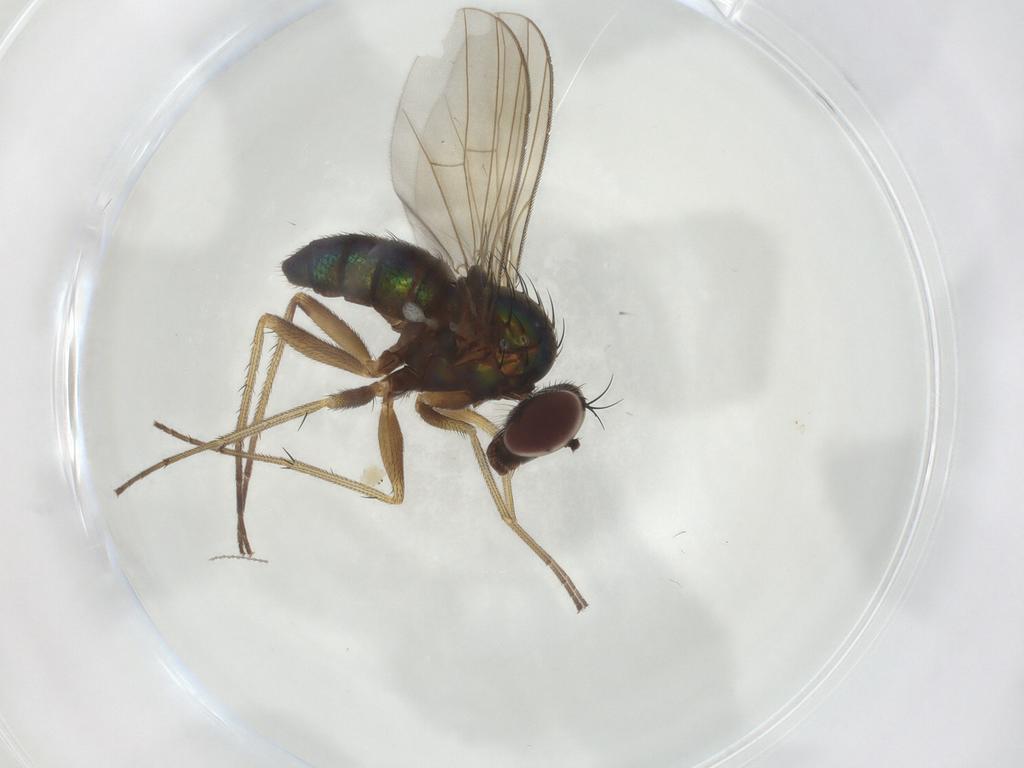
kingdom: Animalia
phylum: Arthropoda
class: Insecta
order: Diptera
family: Dolichopodidae
